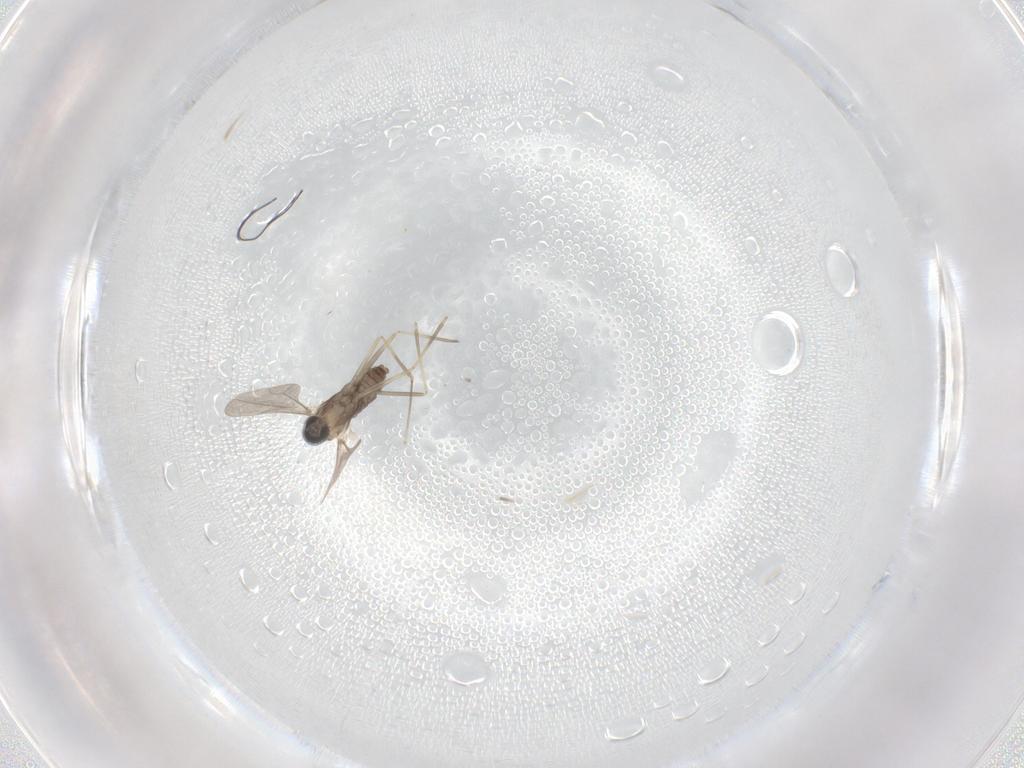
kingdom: Animalia
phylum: Arthropoda
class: Insecta
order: Diptera
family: Cecidomyiidae
